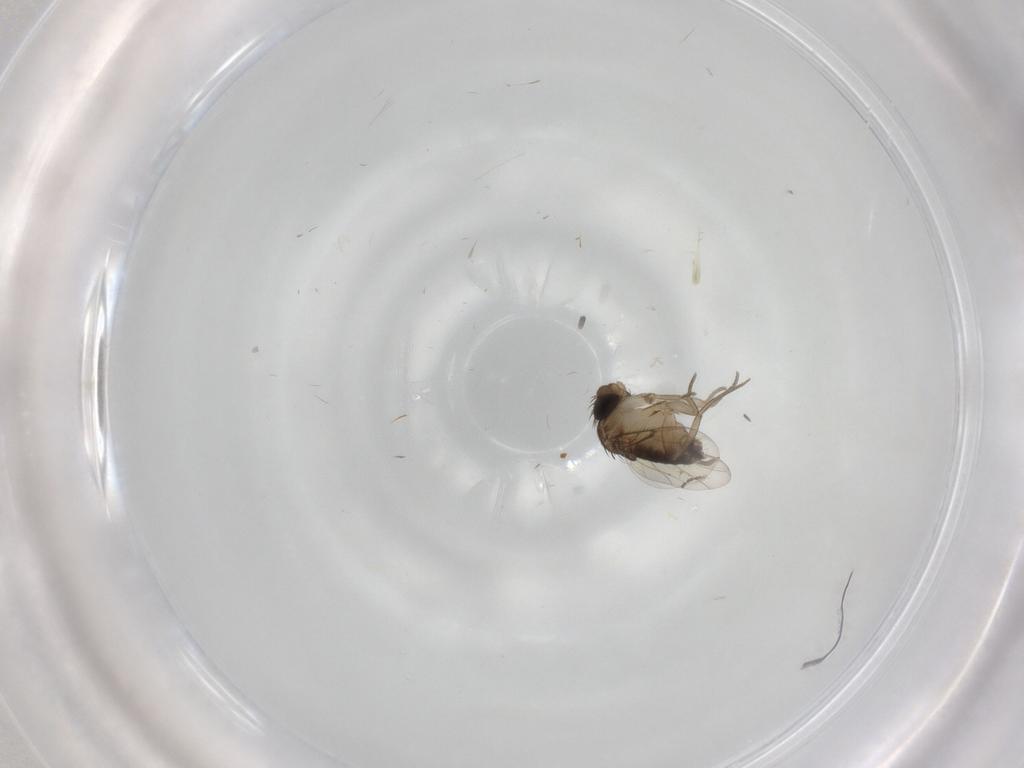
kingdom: Animalia
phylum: Arthropoda
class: Insecta
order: Diptera
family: Phoridae
